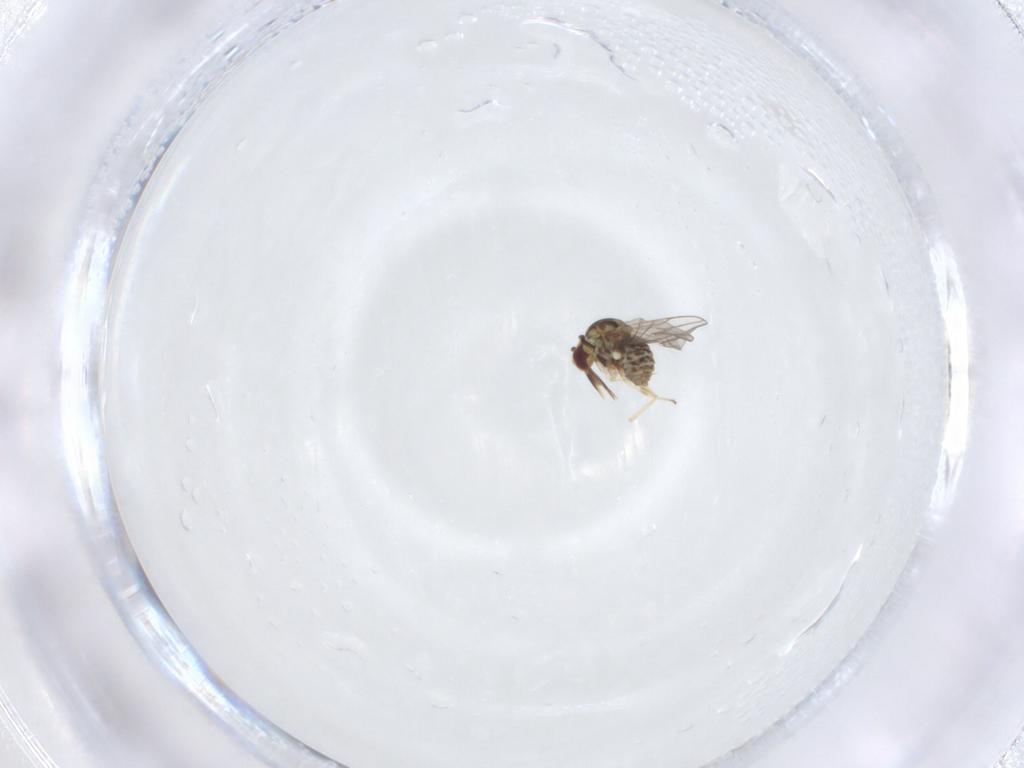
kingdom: Animalia
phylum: Arthropoda
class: Insecta
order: Diptera
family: Bombyliidae
